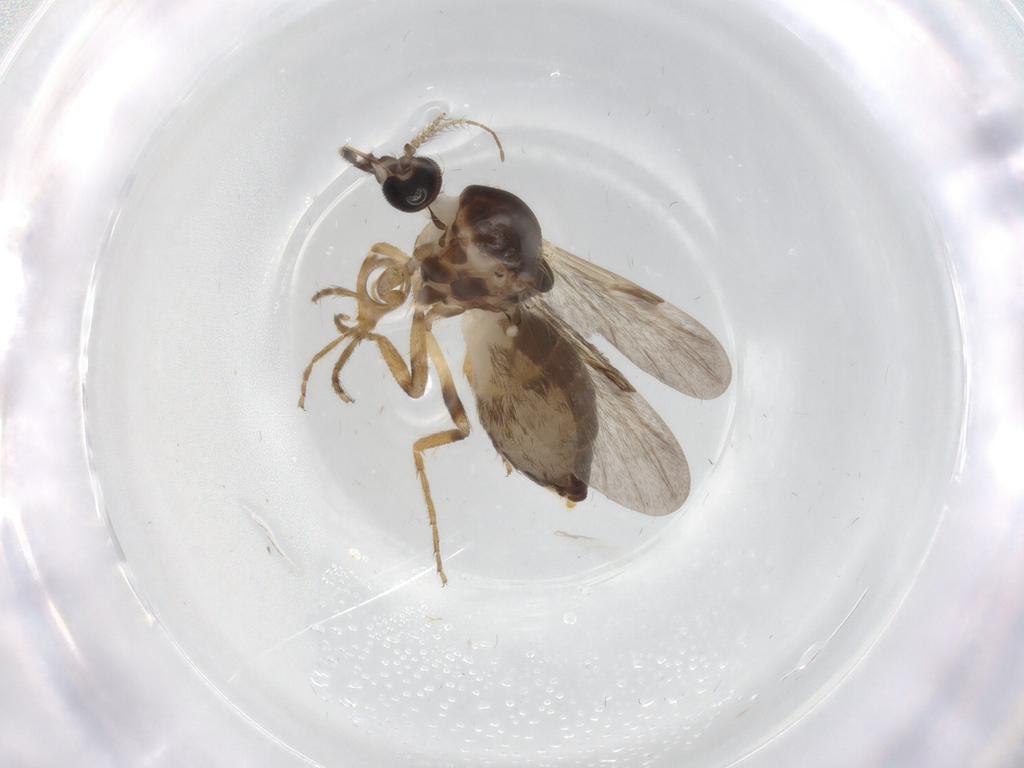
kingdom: Animalia
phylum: Arthropoda
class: Insecta
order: Diptera
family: Ceratopogonidae
